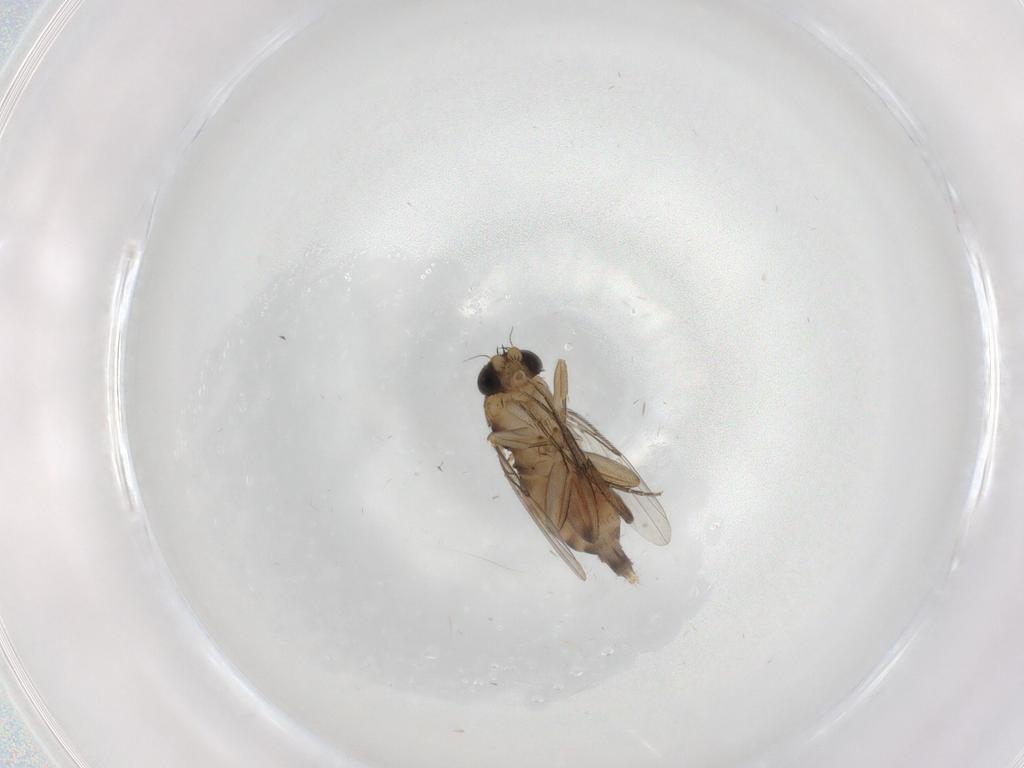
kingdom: Animalia
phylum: Arthropoda
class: Insecta
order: Diptera
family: Phoridae
